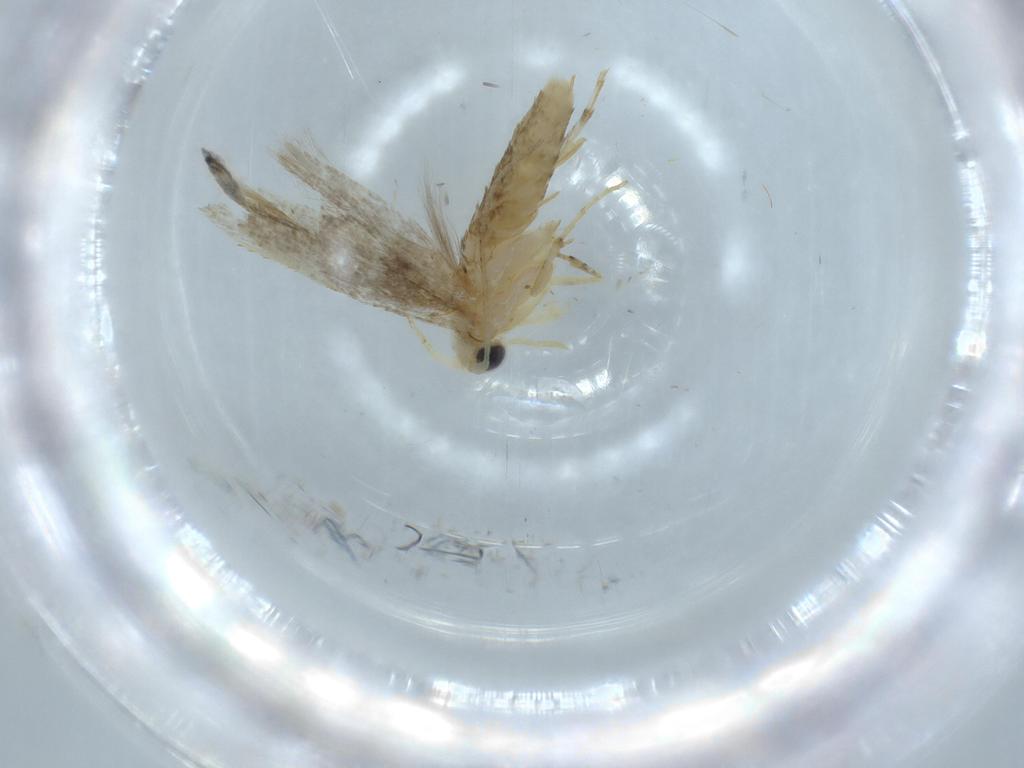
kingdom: Animalia
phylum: Arthropoda
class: Insecta
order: Lepidoptera
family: Argyresthiidae
